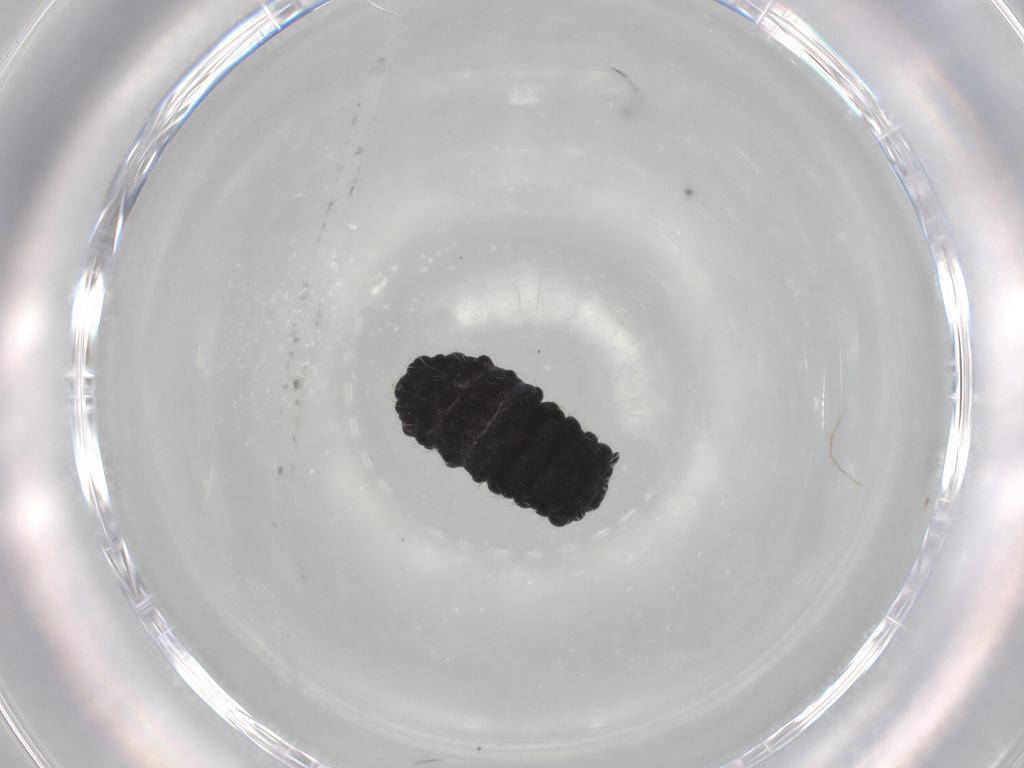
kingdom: Animalia
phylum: Arthropoda
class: Collembola
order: Poduromorpha
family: Neanuridae
